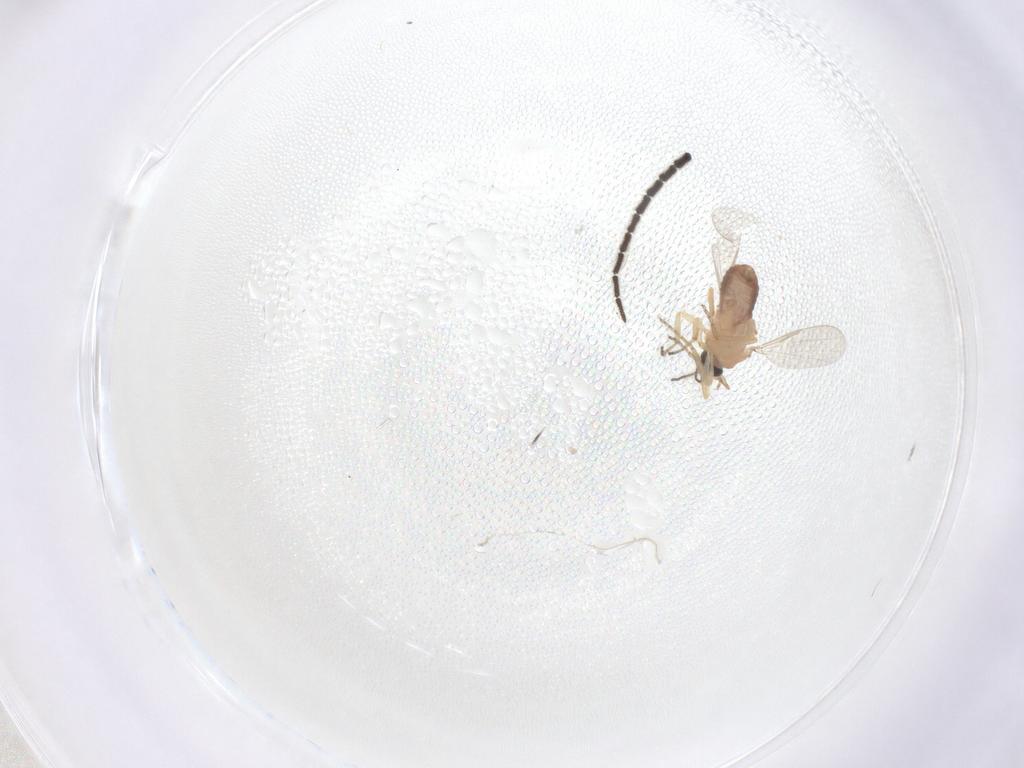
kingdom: Animalia
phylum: Arthropoda
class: Insecta
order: Diptera
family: Ceratopogonidae
